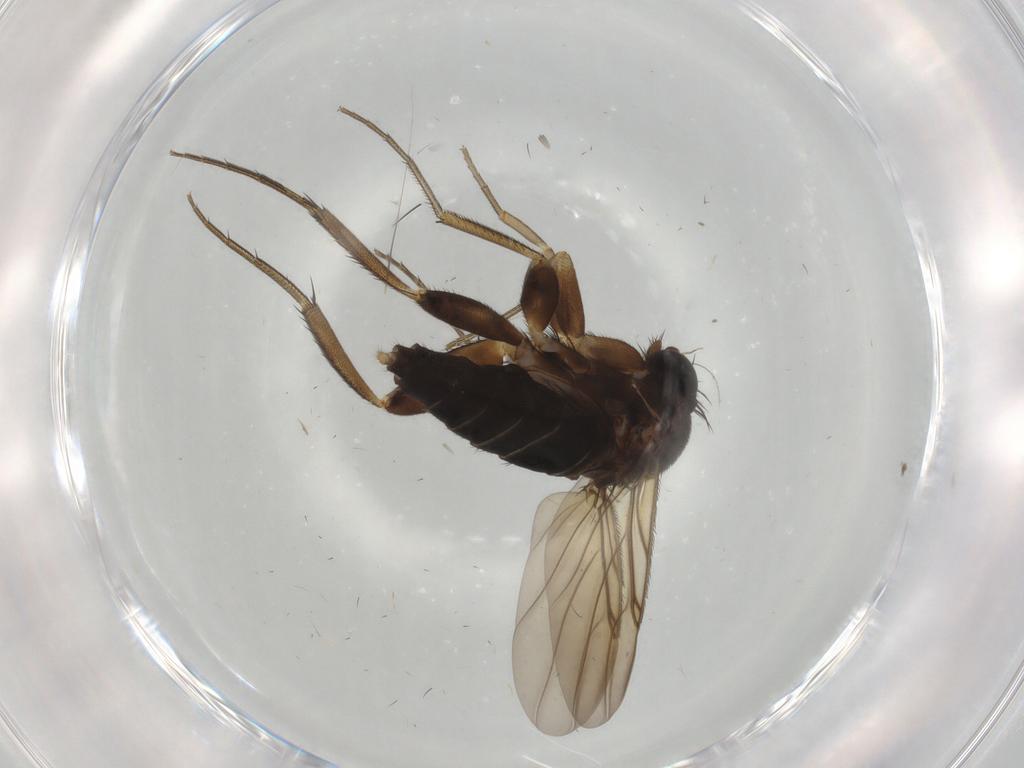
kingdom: Animalia
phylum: Arthropoda
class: Insecta
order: Diptera
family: Phoridae
